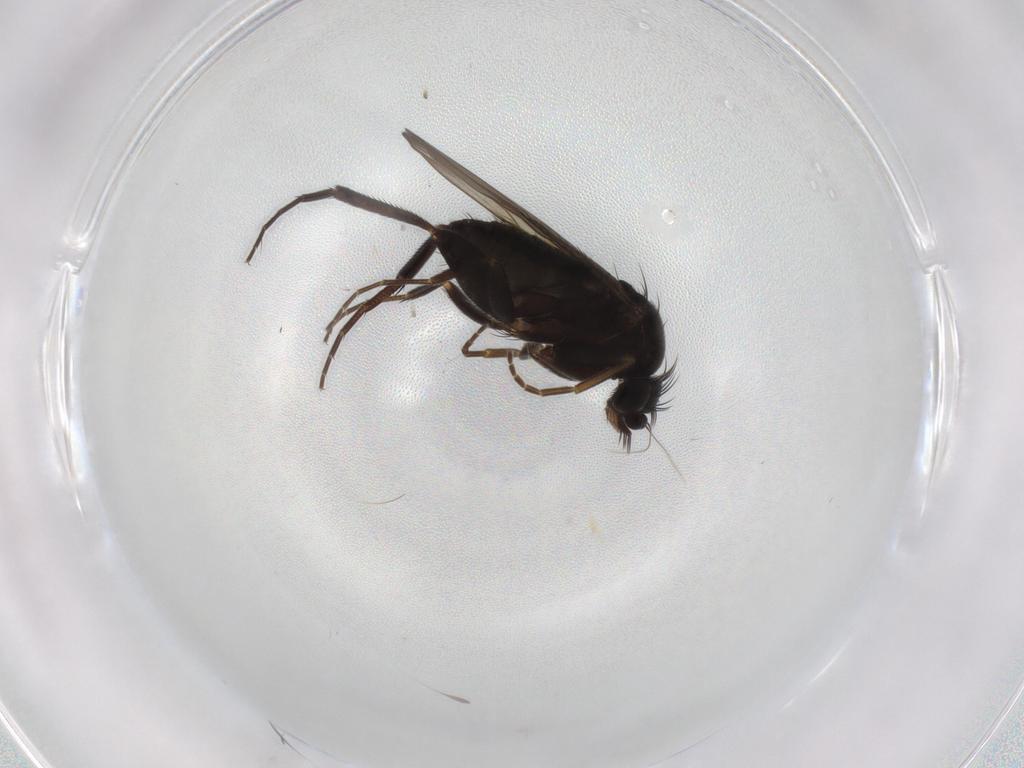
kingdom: Animalia
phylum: Arthropoda
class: Insecta
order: Diptera
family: Phoridae
